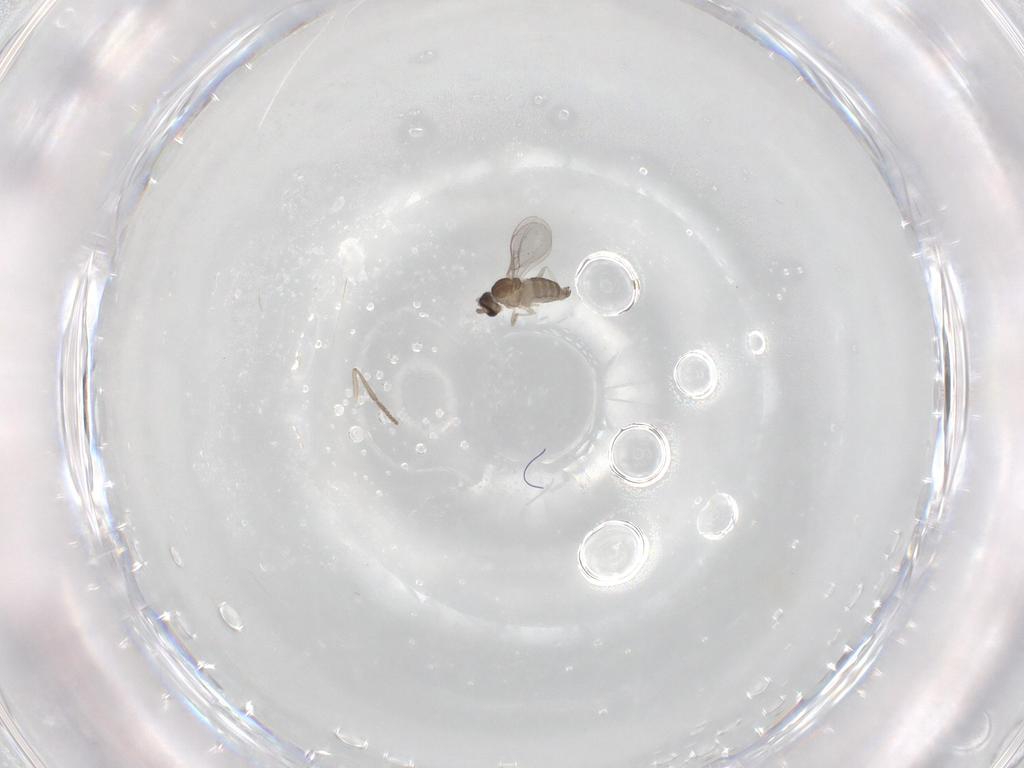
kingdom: Animalia
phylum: Arthropoda
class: Insecta
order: Diptera
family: Cecidomyiidae
